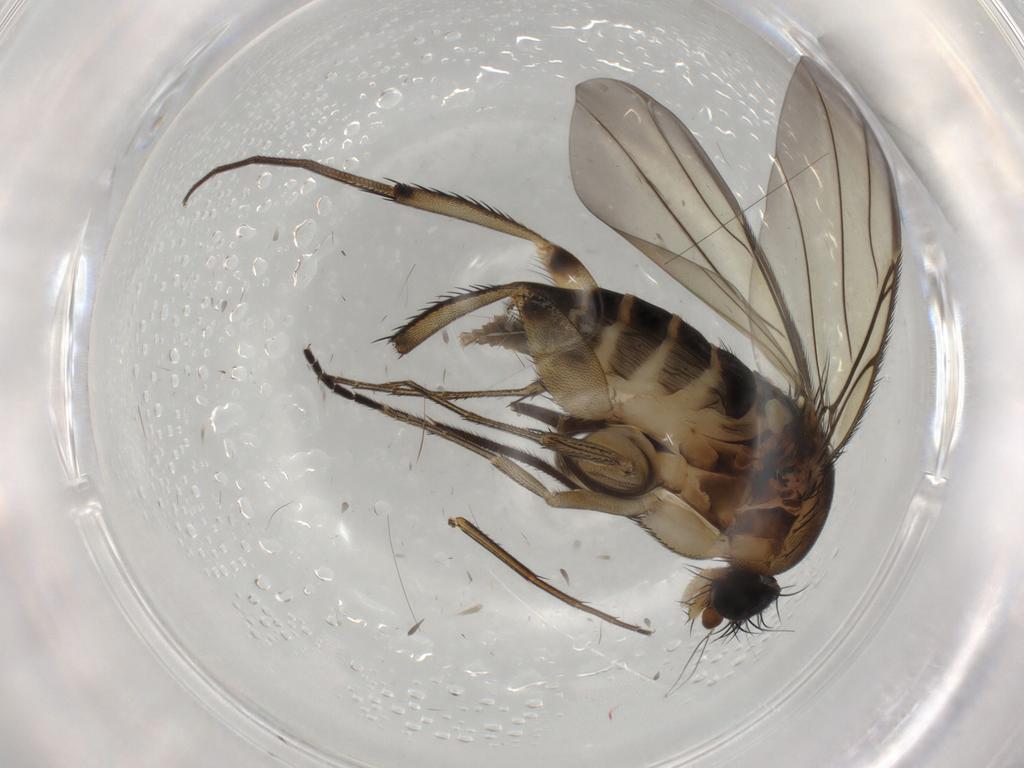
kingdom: Animalia
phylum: Arthropoda
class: Insecta
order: Diptera
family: Phoridae
